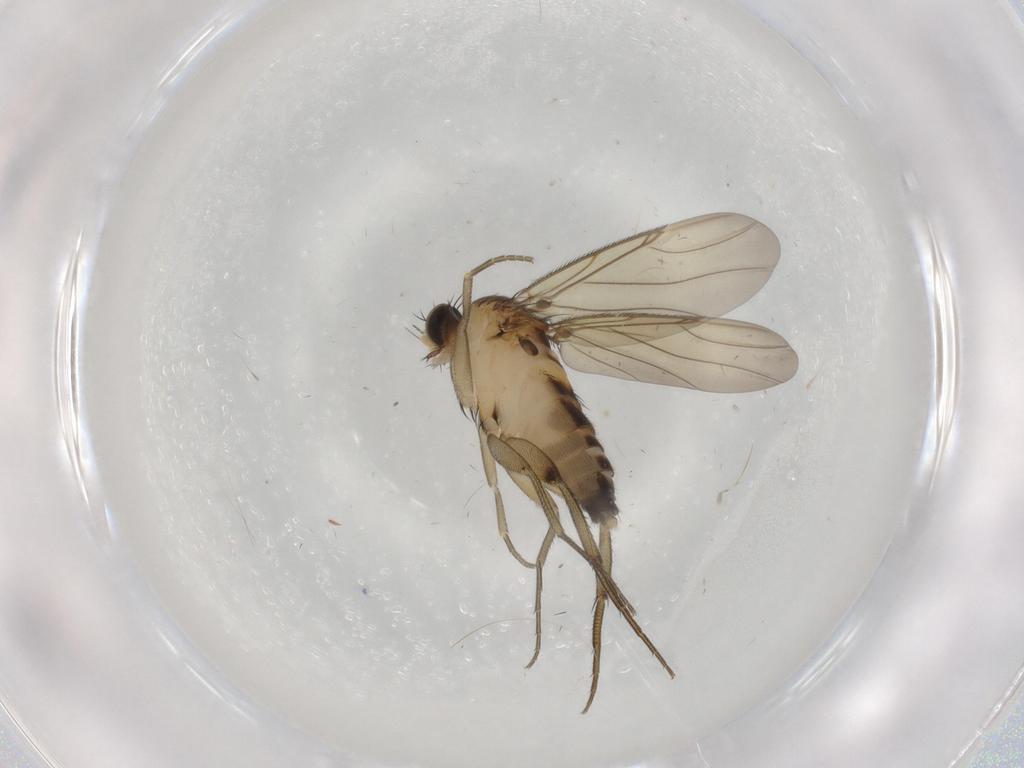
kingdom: Animalia
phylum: Arthropoda
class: Insecta
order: Diptera
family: Phoridae
